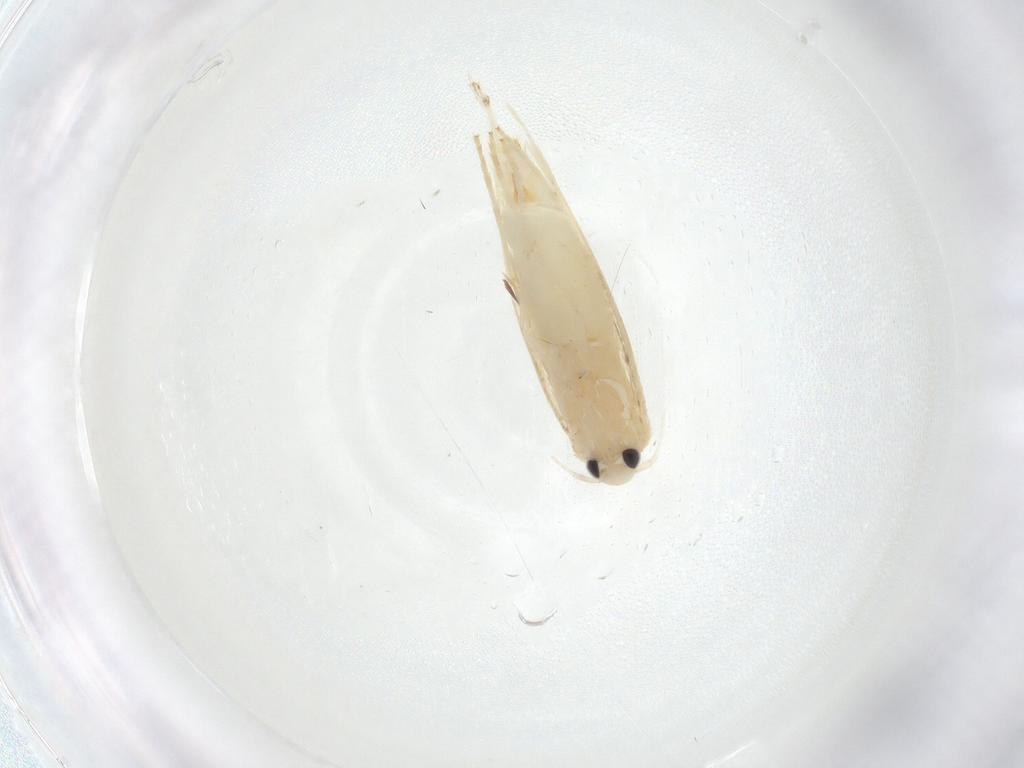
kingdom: Animalia
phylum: Arthropoda
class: Insecta
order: Lepidoptera
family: Gracillariidae
